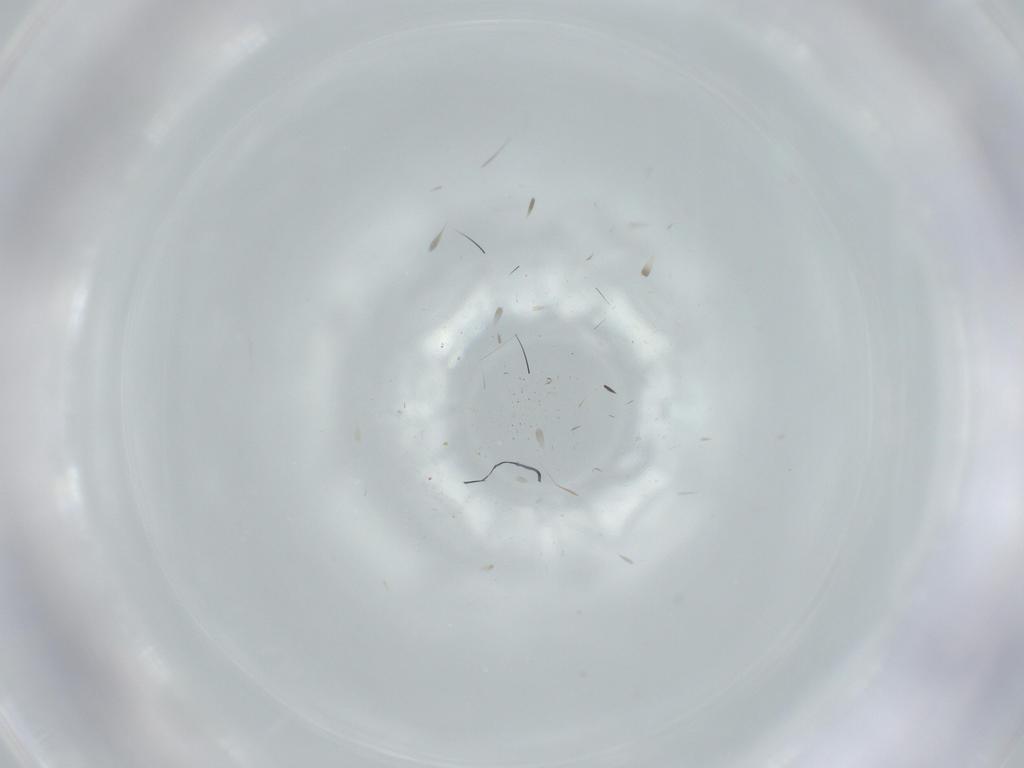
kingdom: Animalia
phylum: Arthropoda
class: Insecta
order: Diptera
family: Sciaridae
